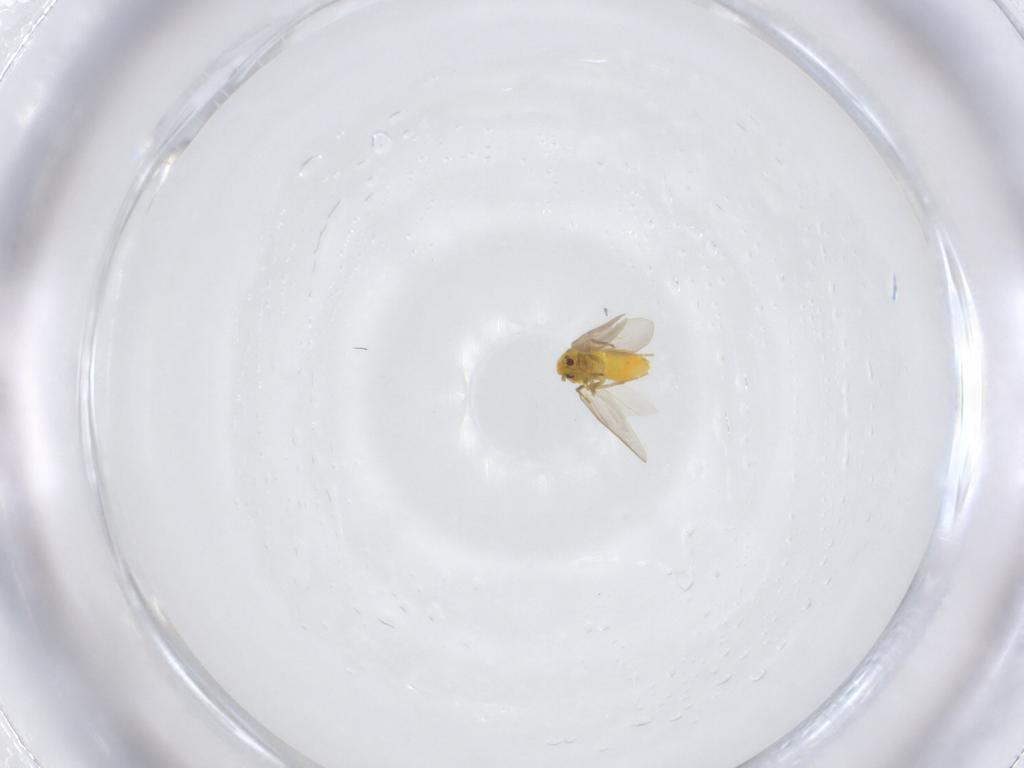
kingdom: Animalia
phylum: Arthropoda
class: Insecta
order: Hemiptera
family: Aleyrodidae
